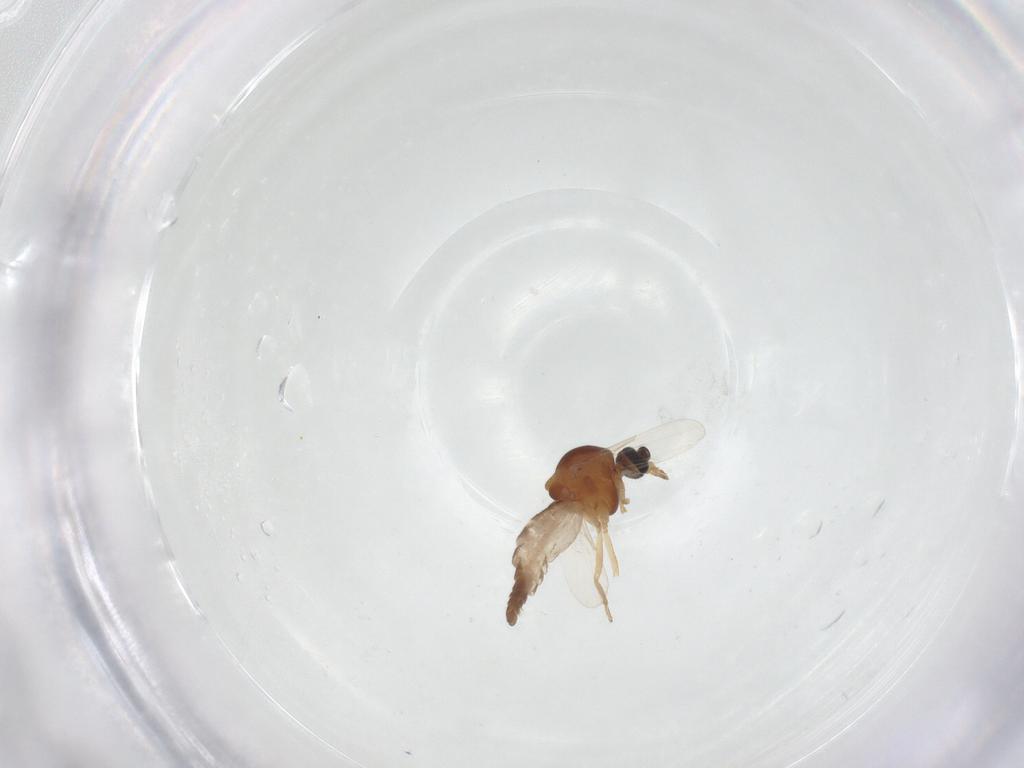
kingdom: Animalia
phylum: Arthropoda
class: Insecta
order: Diptera
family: Ceratopogonidae
